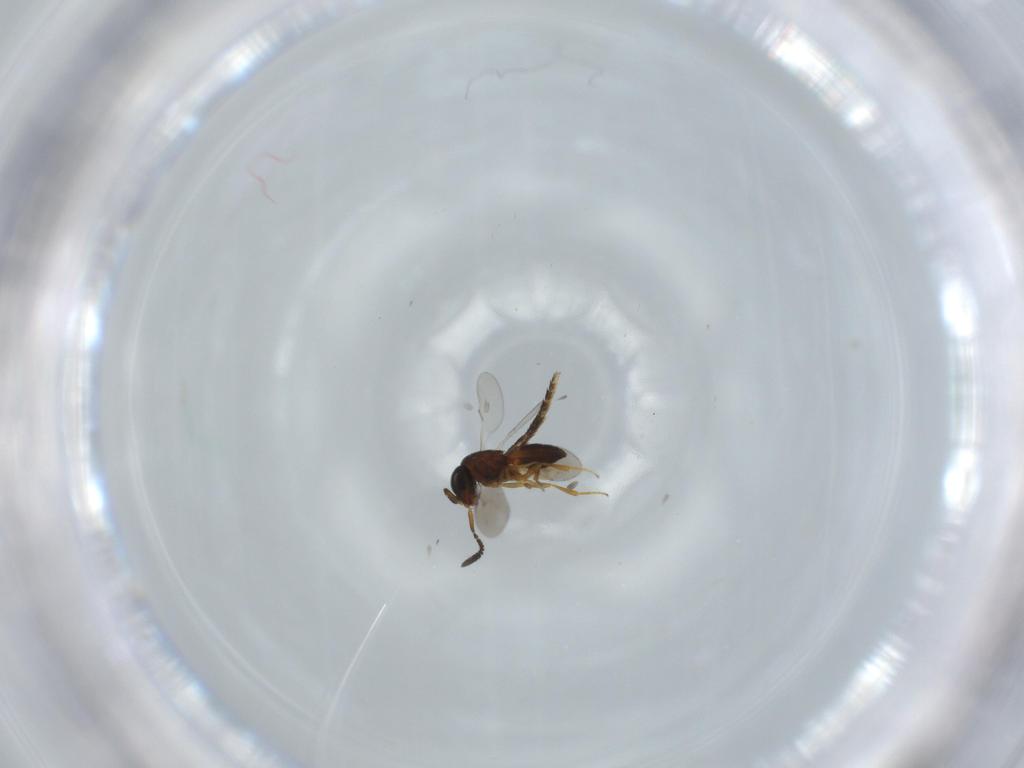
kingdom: Animalia
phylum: Arthropoda
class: Insecta
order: Hymenoptera
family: Scelionidae
